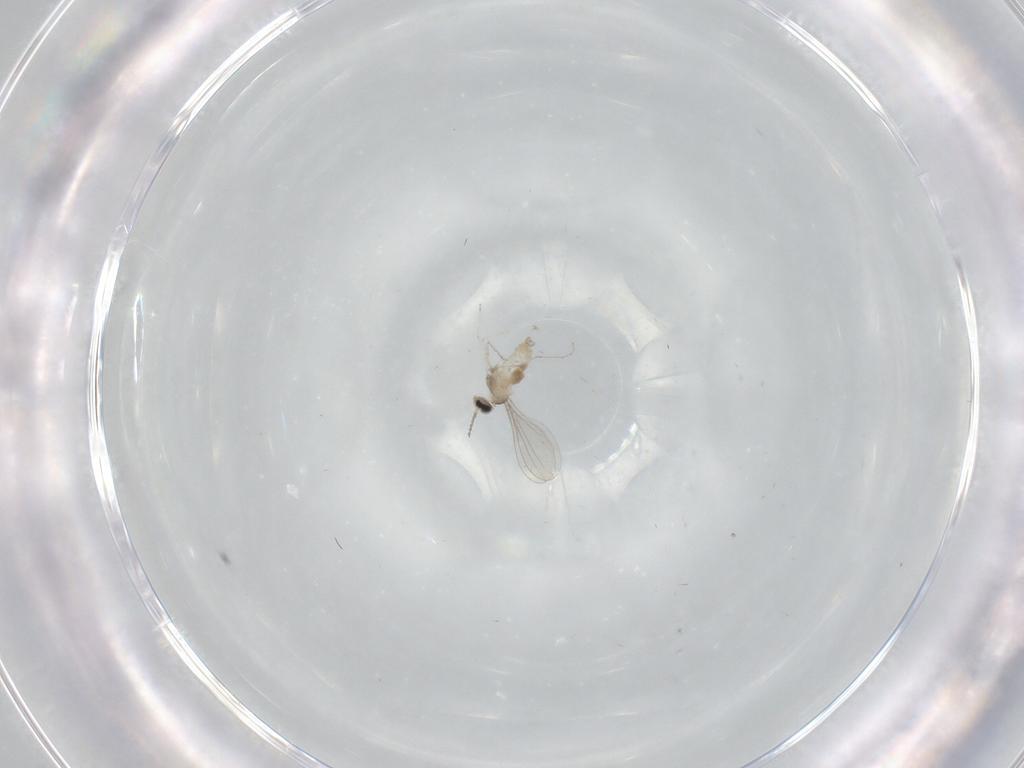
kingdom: Animalia
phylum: Arthropoda
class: Insecta
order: Diptera
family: Cecidomyiidae
